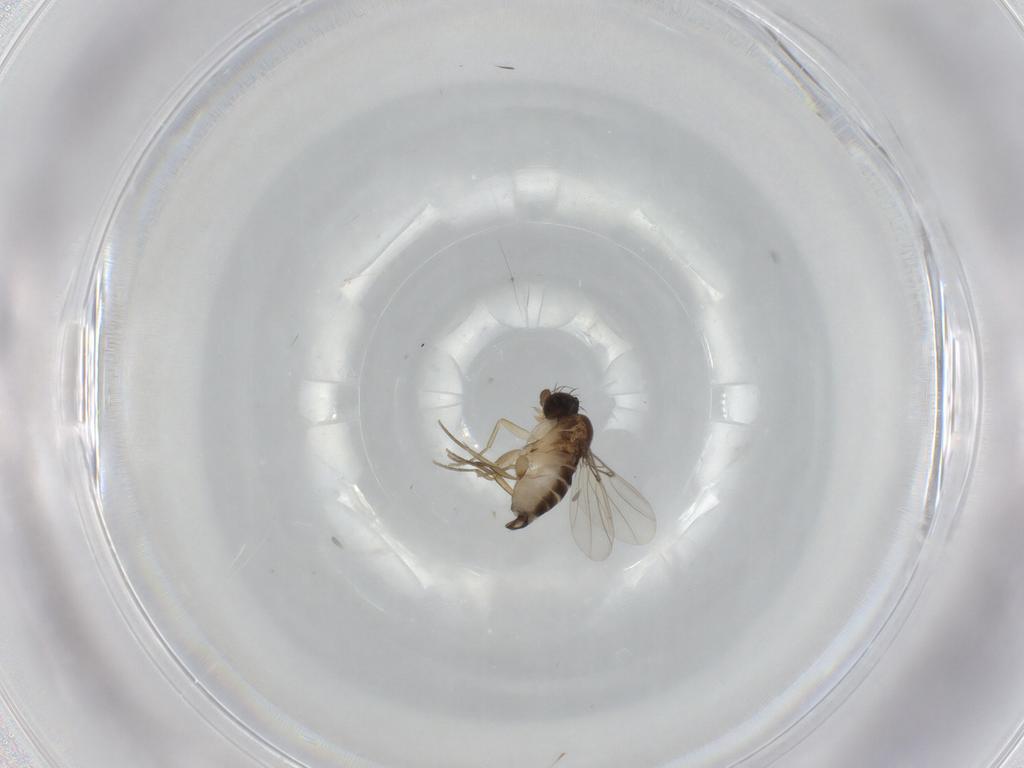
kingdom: Animalia
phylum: Arthropoda
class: Insecta
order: Diptera
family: Phoridae
